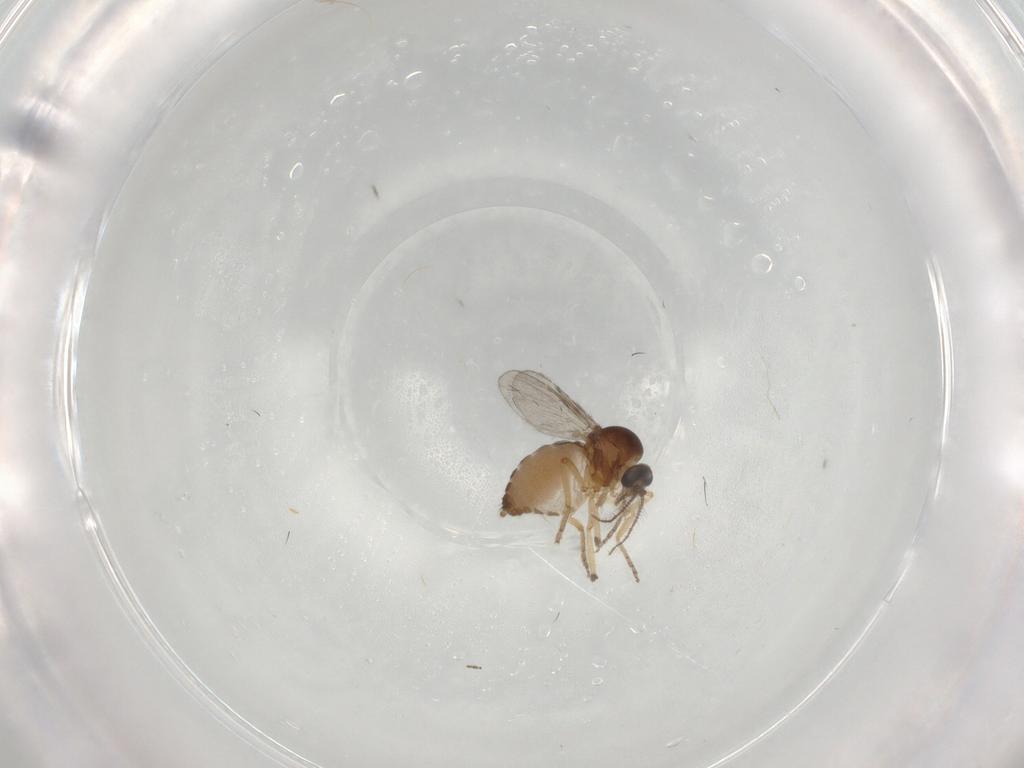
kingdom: Animalia
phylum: Arthropoda
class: Insecta
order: Diptera
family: Ceratopogonidae
